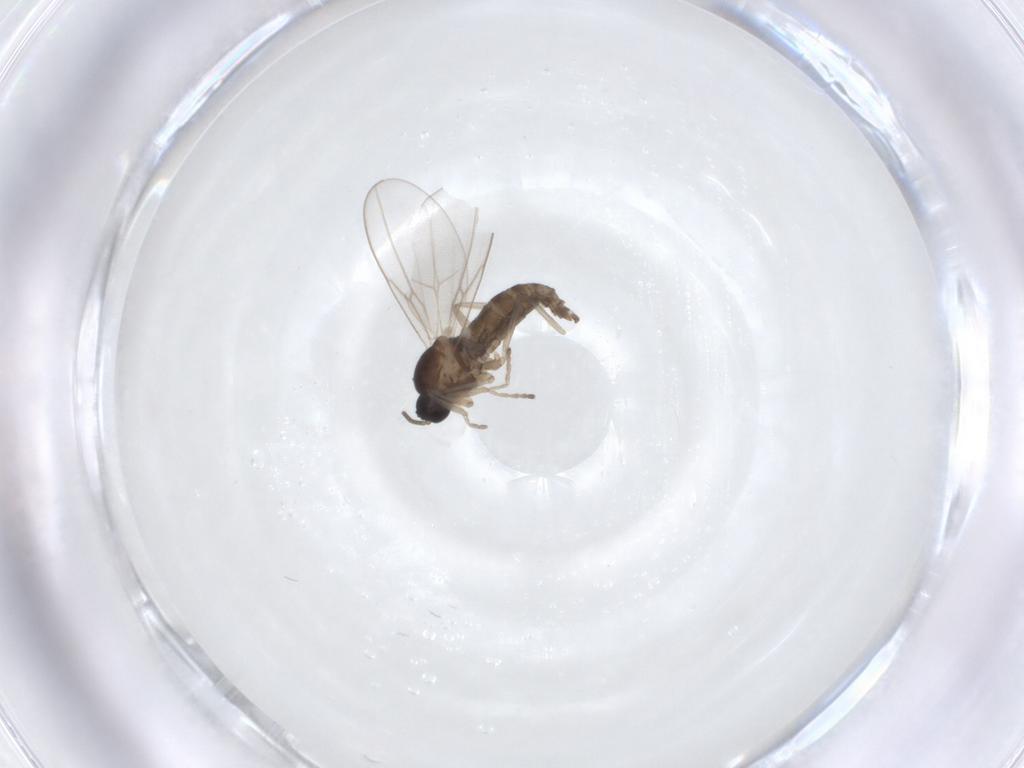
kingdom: Animalia
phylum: Arthropoda
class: Insecta
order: Diptera
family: Cecidomyiidae
